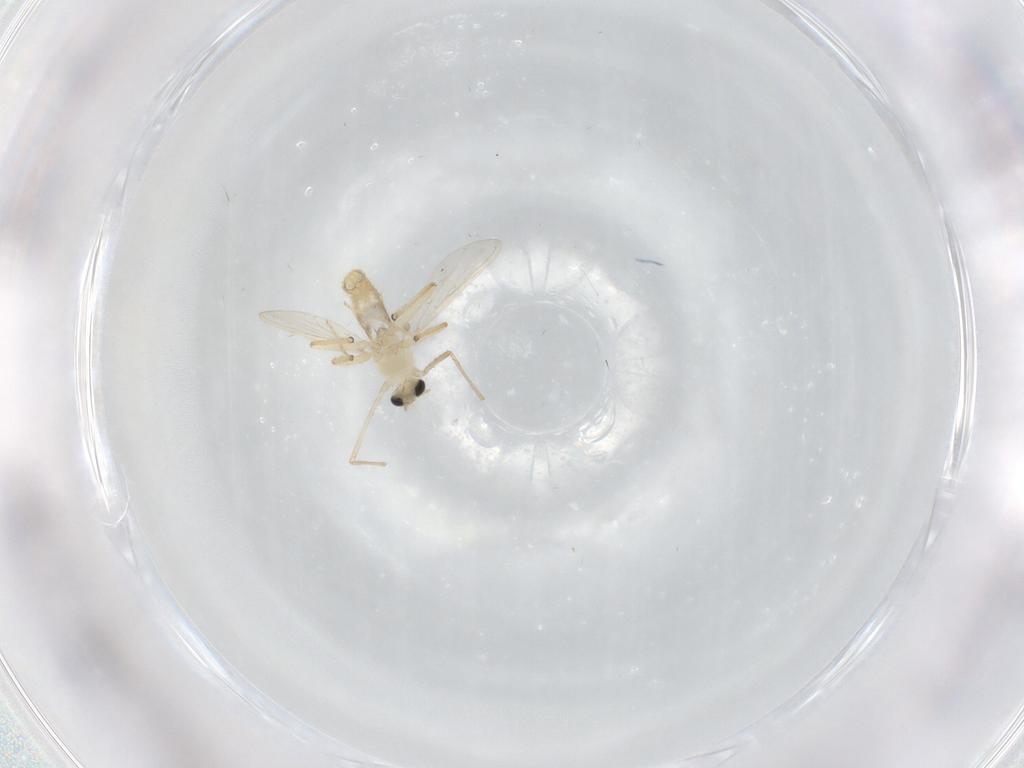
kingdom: Animalia
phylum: Arthropoda
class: Insecta
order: Diptera
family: Chironomidae
